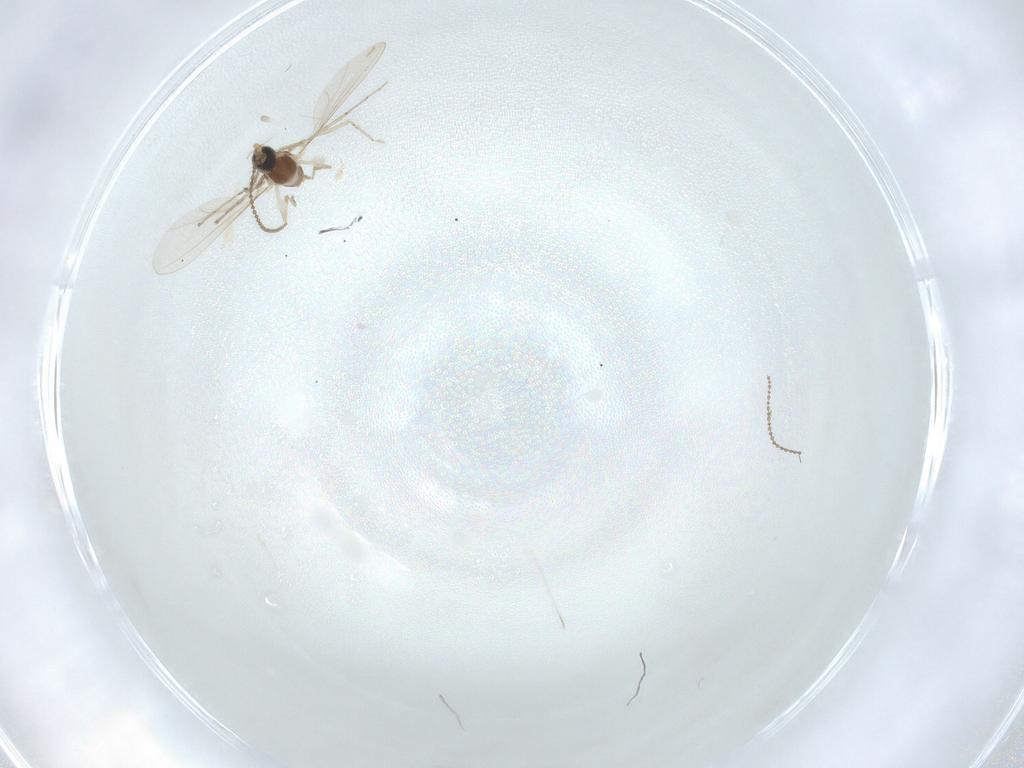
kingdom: Animalia
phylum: Arthropoda
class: Insecta
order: Diptera
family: Cecidomyiidae
